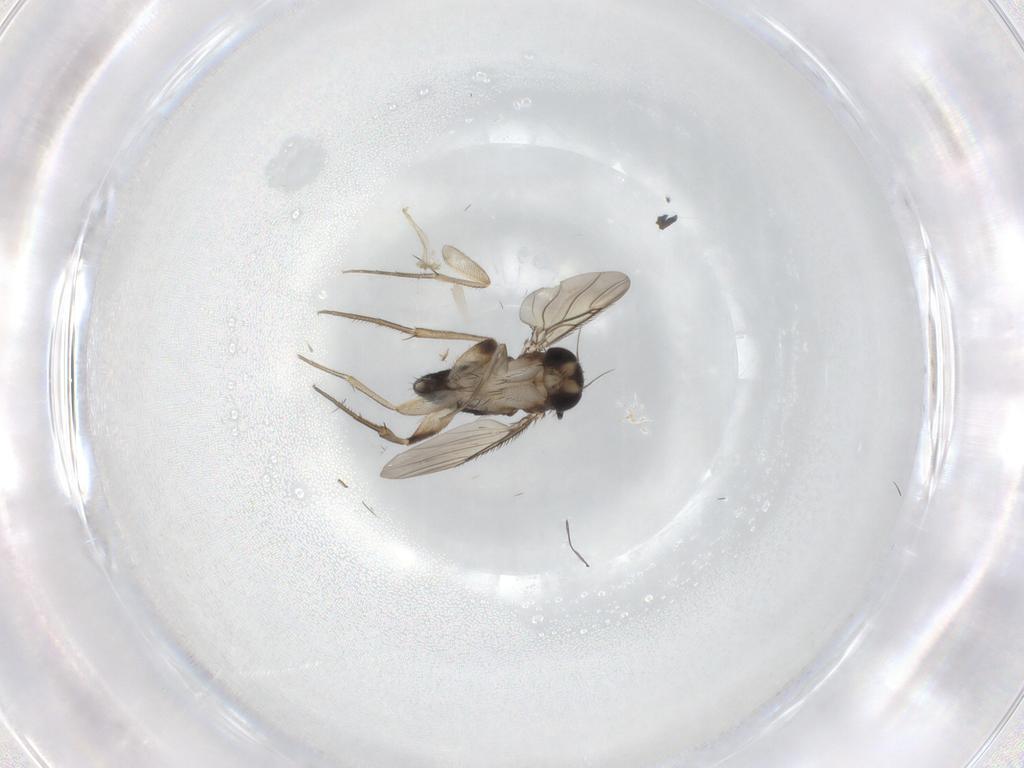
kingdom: Animalia
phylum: Arthropoda
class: Insecta
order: Diptera
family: Phoridae
